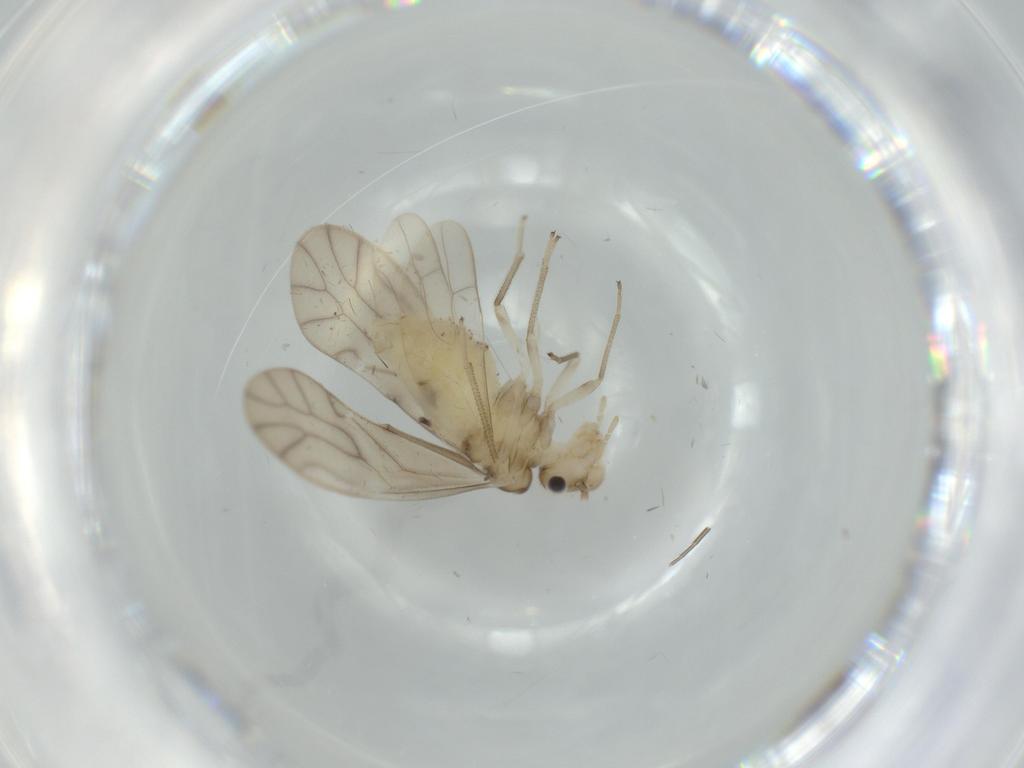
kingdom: Animalia
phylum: Arthropoda
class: Insecta
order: Psocodea
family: Caeciliusidae
